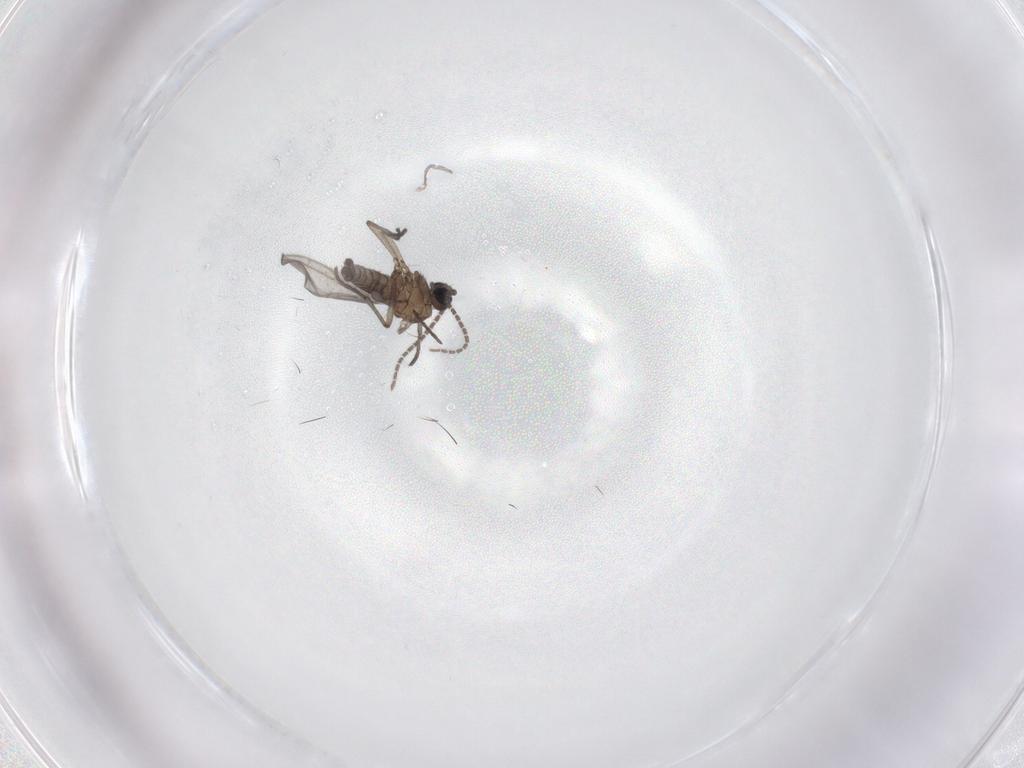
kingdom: Animalia
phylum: Arthropoda
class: Insecta
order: Diptera
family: Sciaridae
